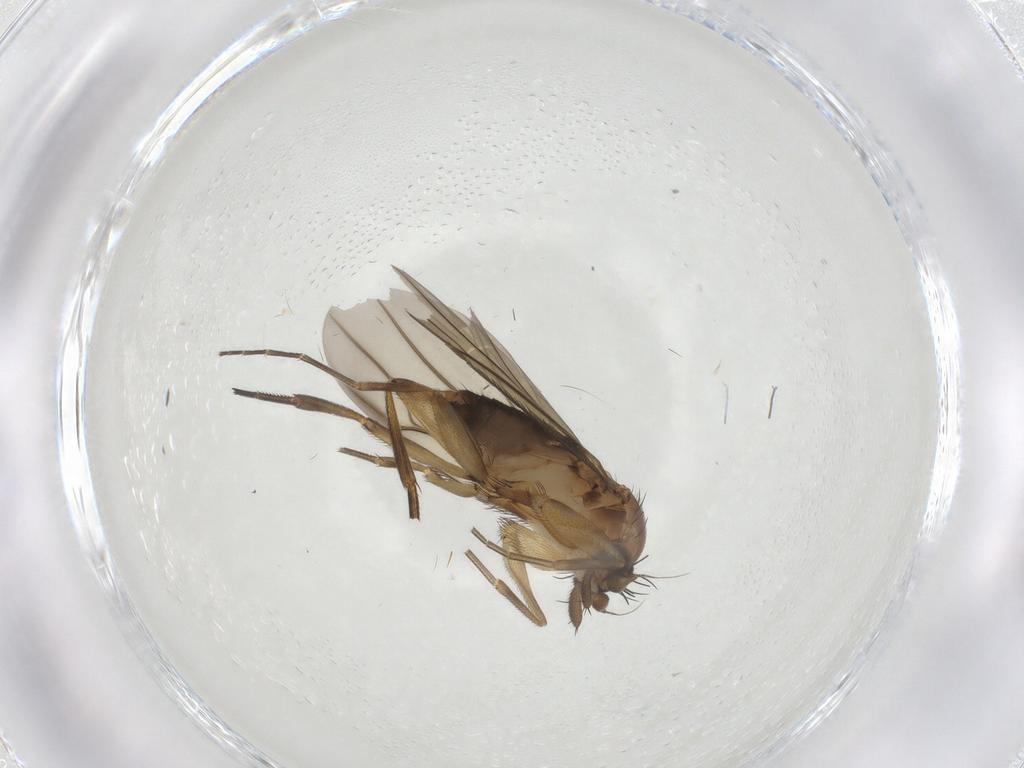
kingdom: Animalia
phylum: Arthropoda
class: Insecta
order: Diptera
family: Phoridae
